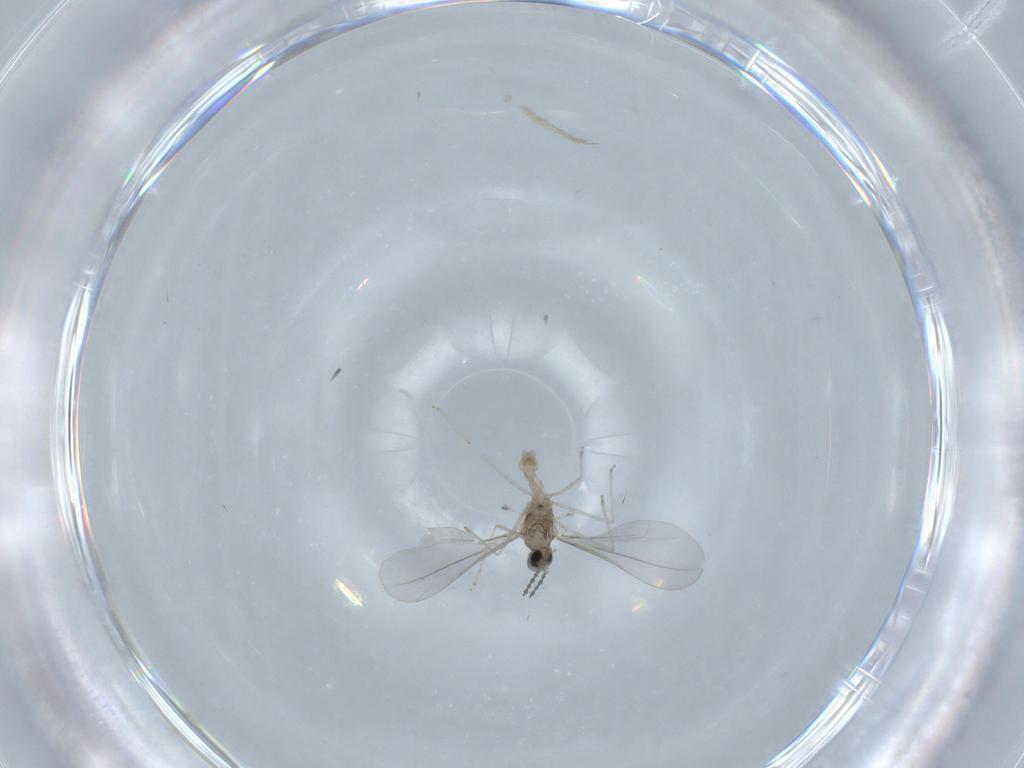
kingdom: Animalia
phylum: Arthropoda
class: Insecta
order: Diptera
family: Cecidomyiidae
